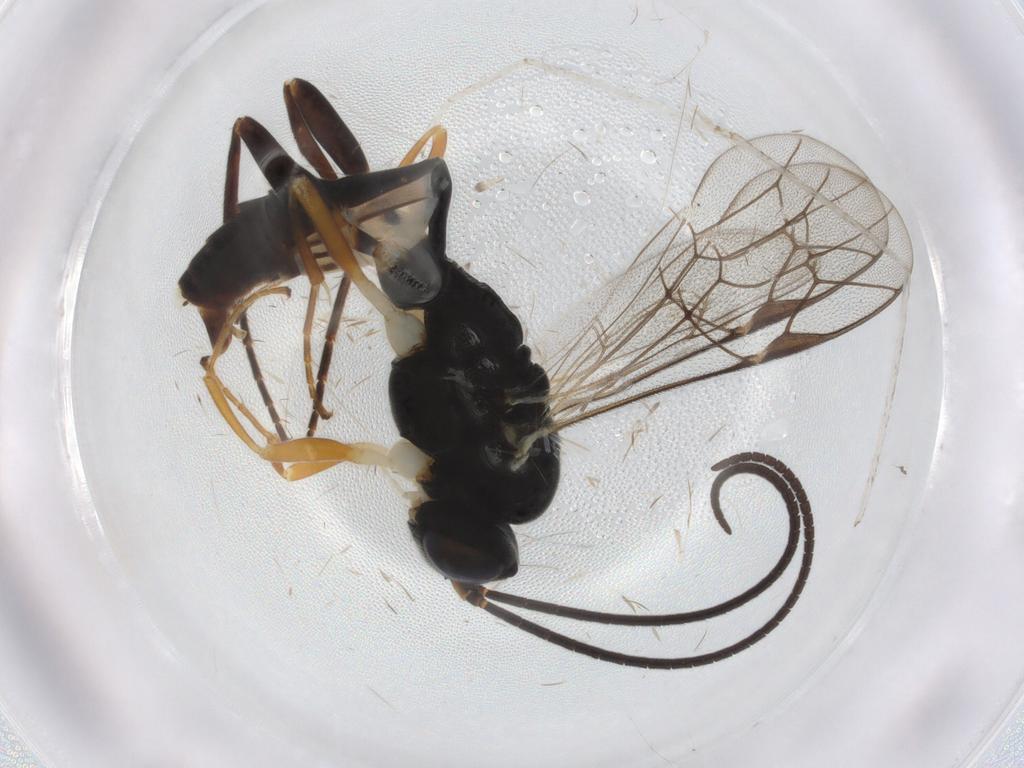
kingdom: Animalia
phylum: Arthropoda
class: Insecta
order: Hymenoptera
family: Ichneumonidae
